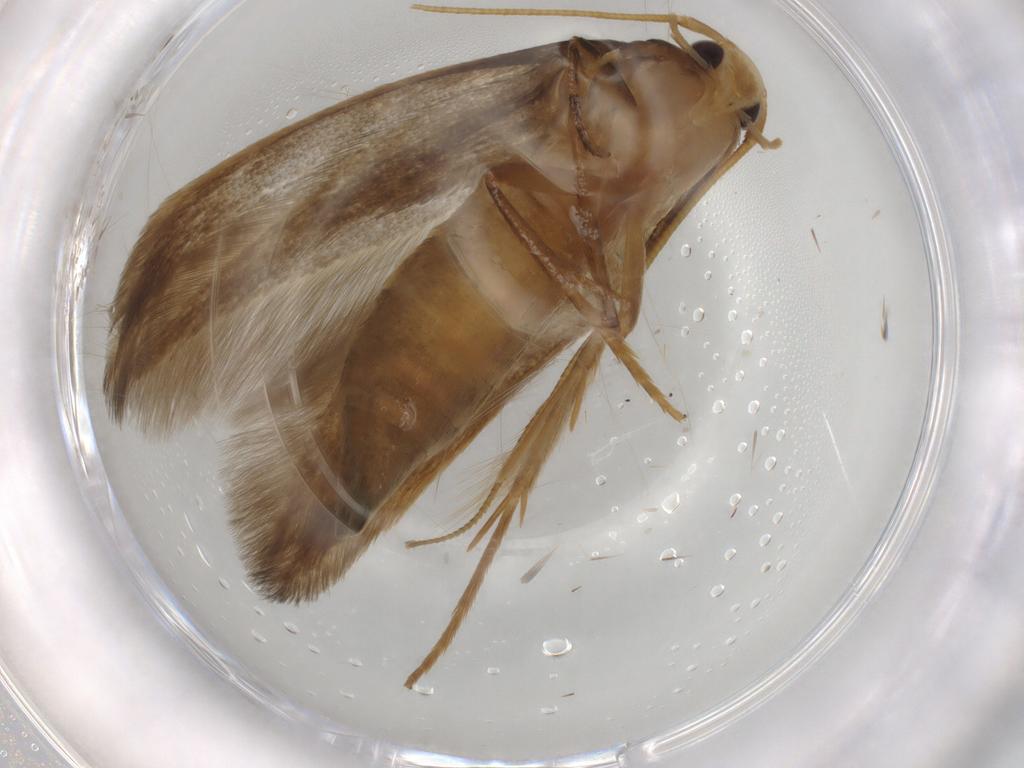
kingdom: Animalia
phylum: Arthropoda
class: Insecta
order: Lepidoptera
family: Tineidae
